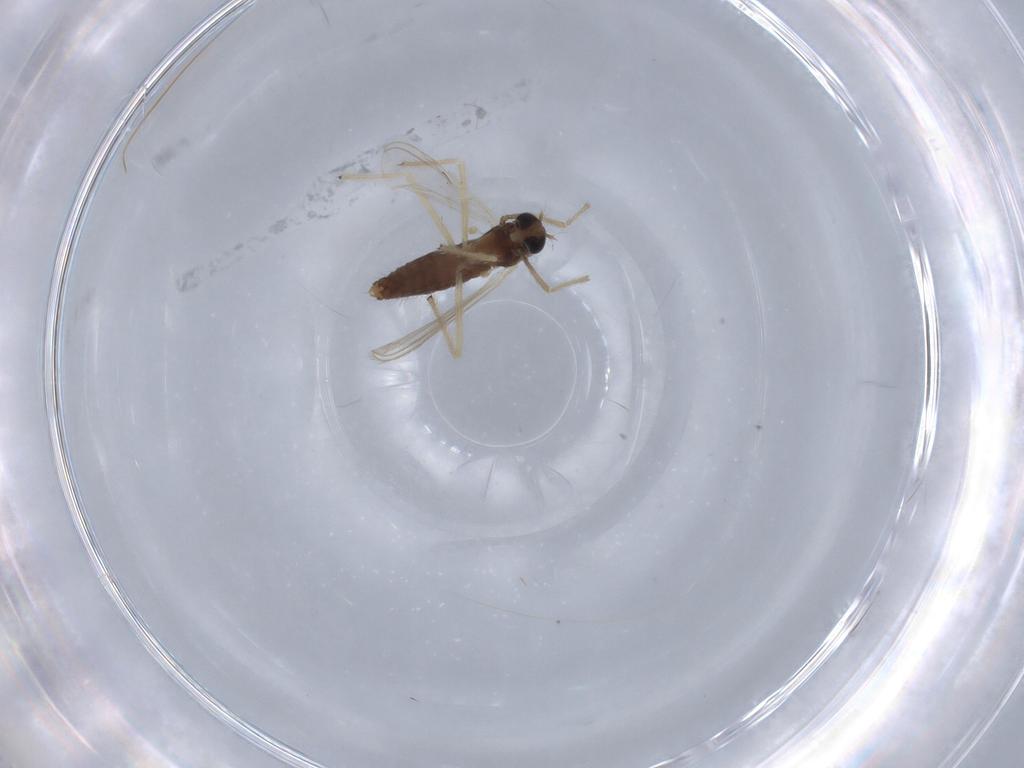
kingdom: Animalia
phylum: Arthropoda
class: Insecta
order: Diptera
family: Chironomidae
